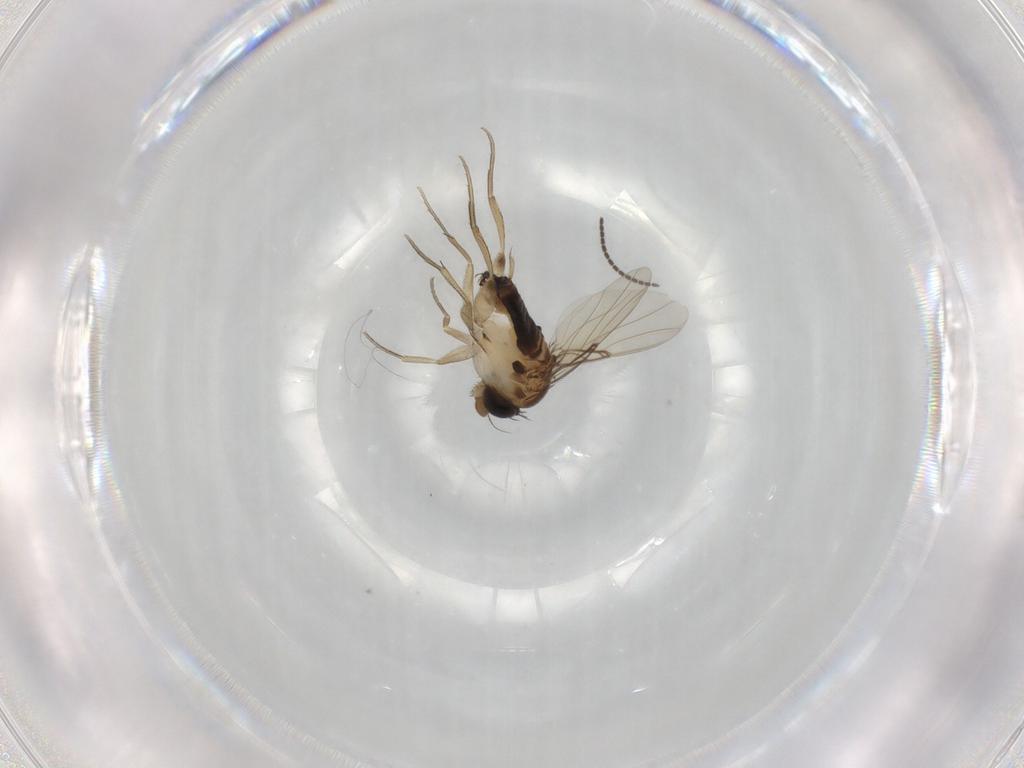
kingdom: Animalia
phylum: Arthropoda
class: Insecta
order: Diptera
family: Phoridae
